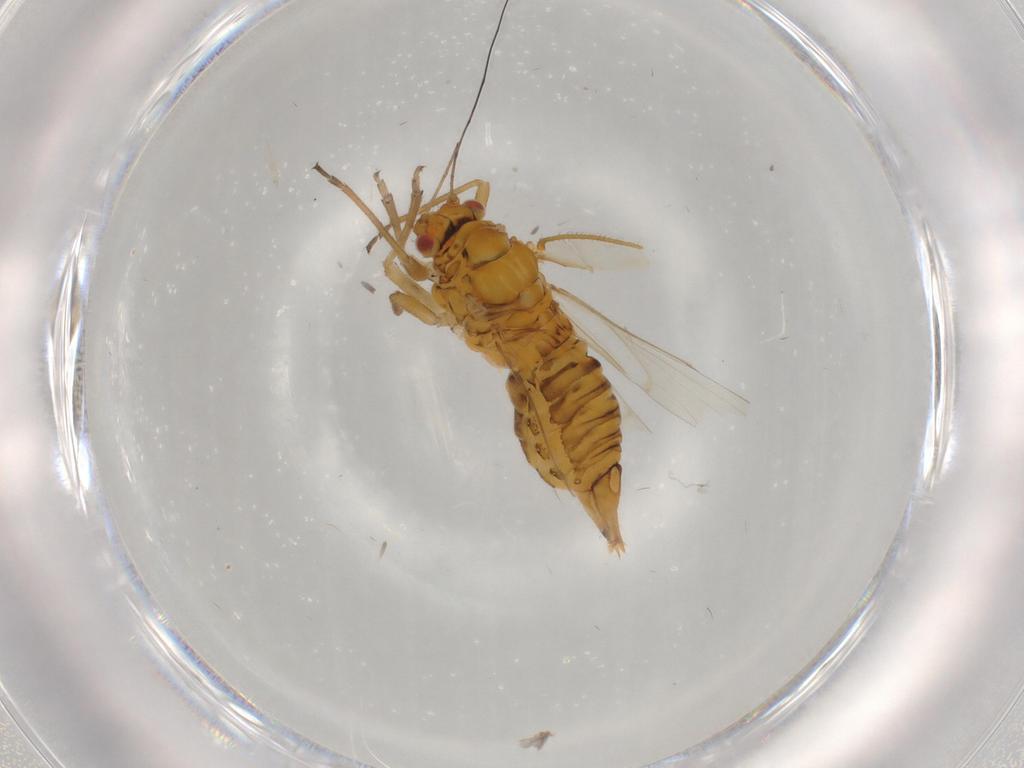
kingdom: Animalia
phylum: Arthropoda
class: Insecta
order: Hemiptera
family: Psyllidae
